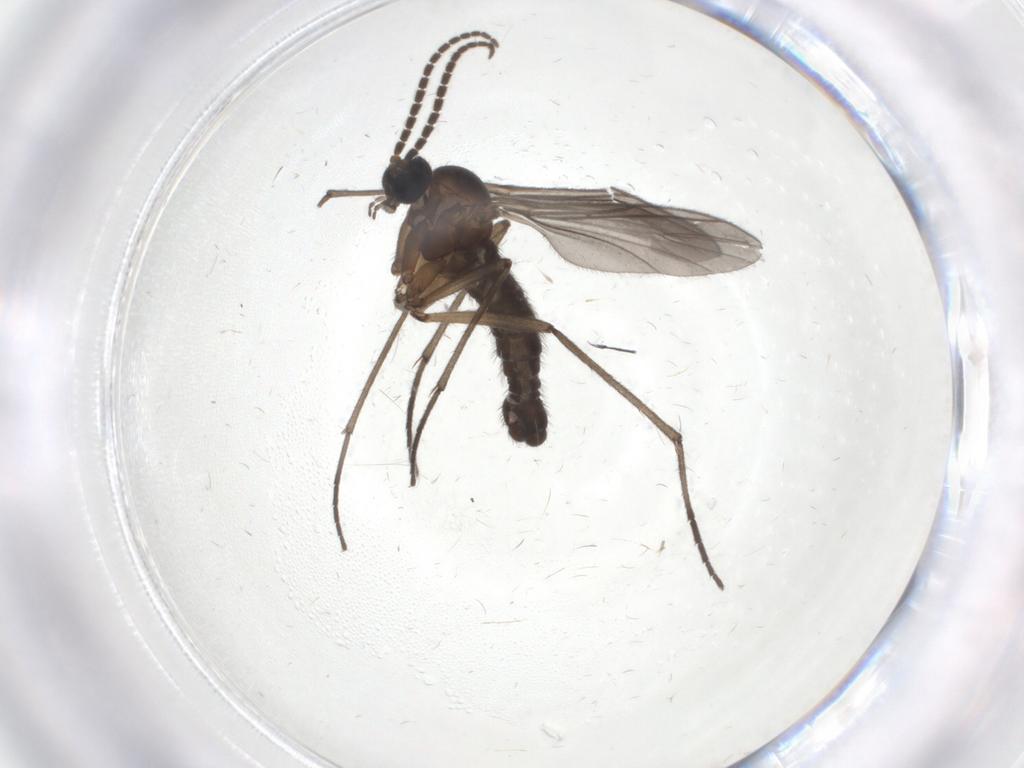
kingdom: Animalia
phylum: Arthropoda
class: Insecta
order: Diptera
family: Sciaridae
